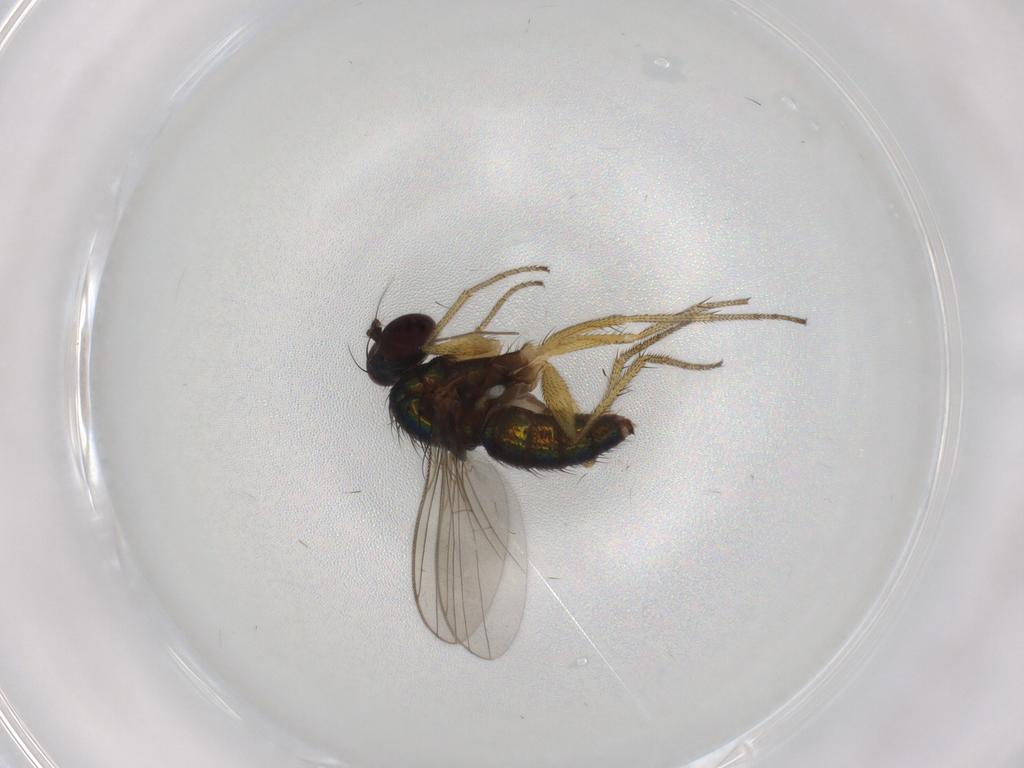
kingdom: Animalia
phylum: Arthropoda
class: Insecta
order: Diptera
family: Dolichopodidae
